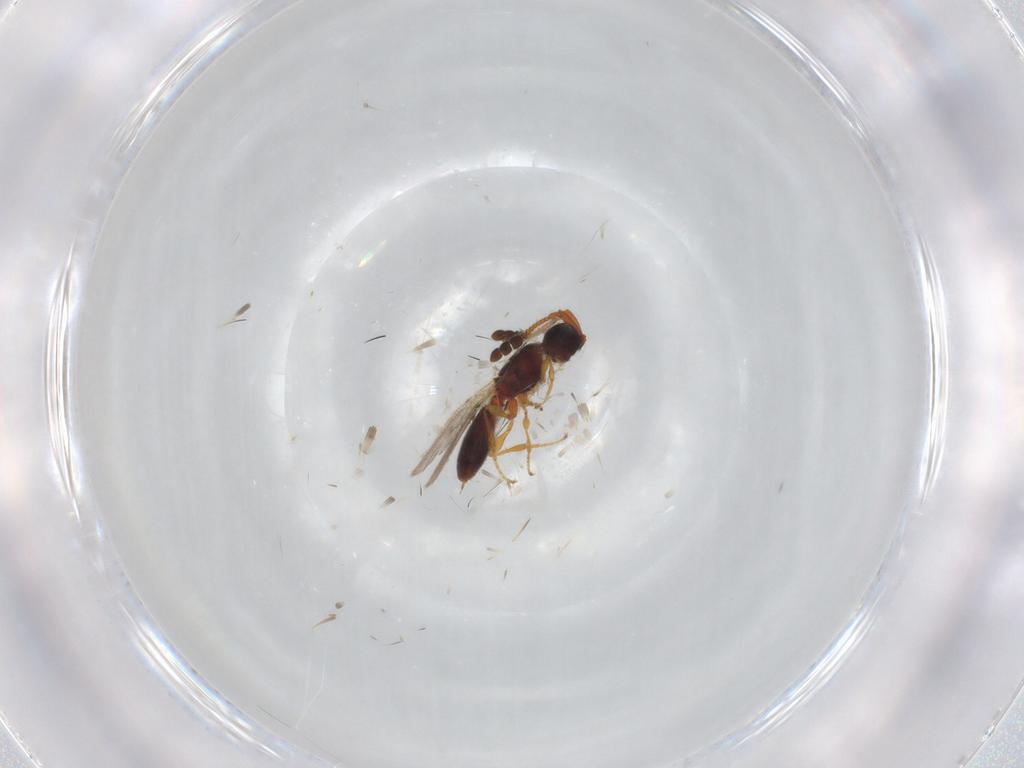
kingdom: Animalia
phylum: Arthropoda
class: Insecta
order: Hymenoptera
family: Diapriidae
